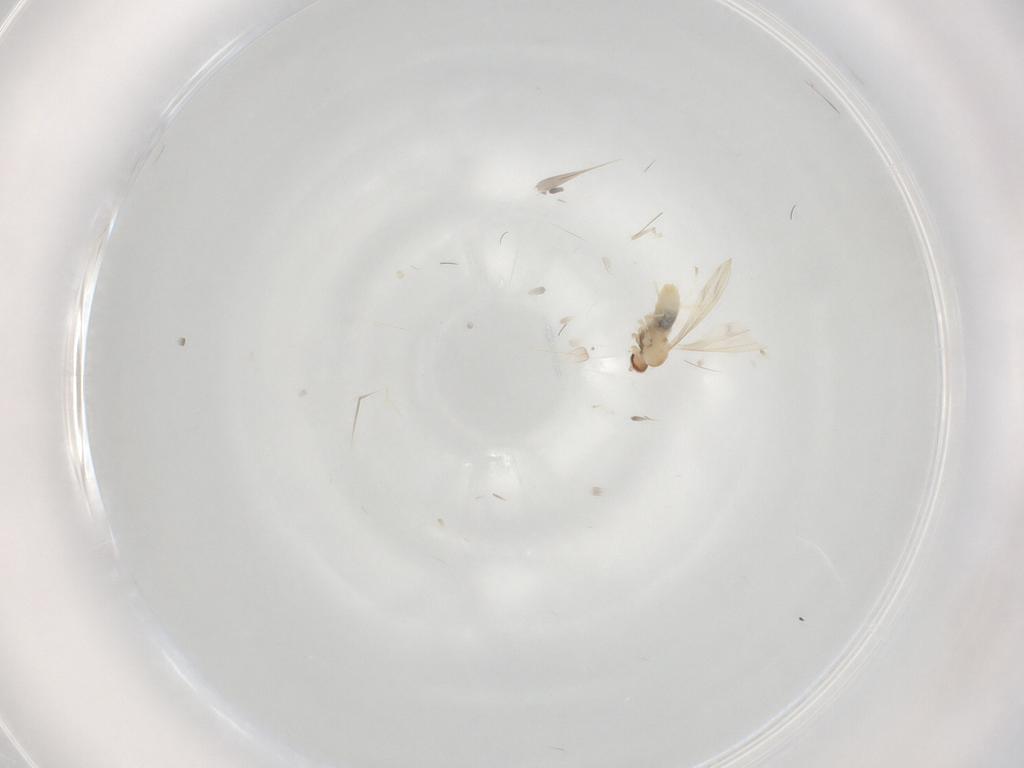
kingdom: Animalia
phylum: Arthropoda
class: Insecta
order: Diptera
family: Cecidomyiidae
